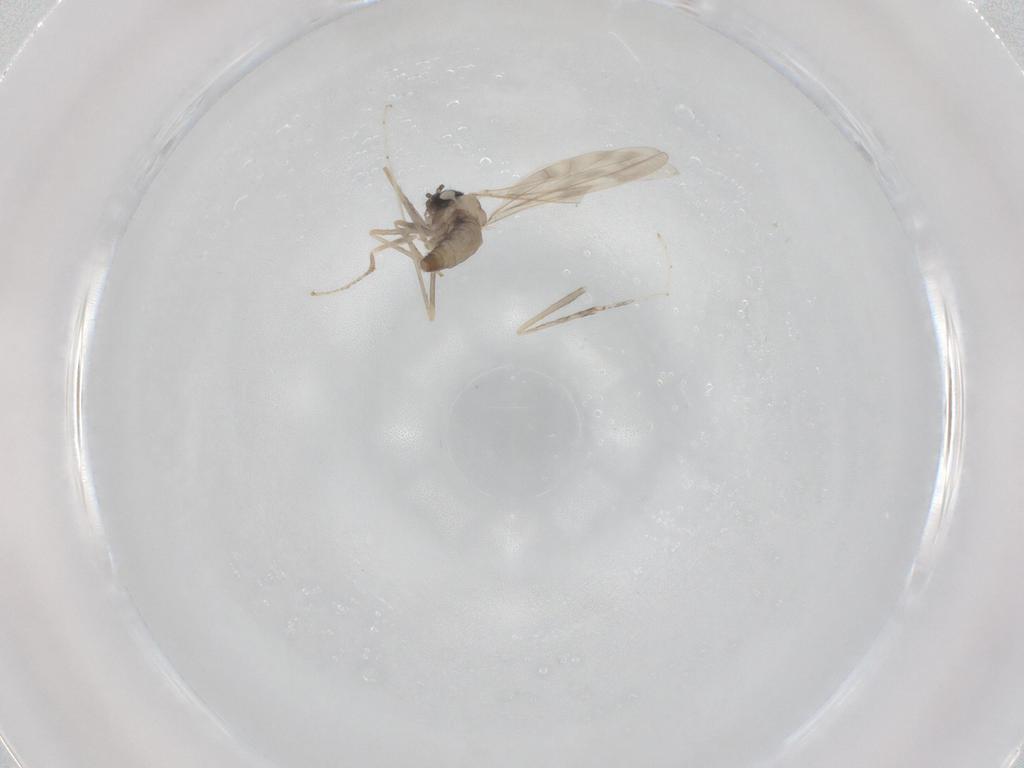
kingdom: Animalia
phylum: Arthropoda
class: Insecta
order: Diptera
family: Cecidomyiidae
